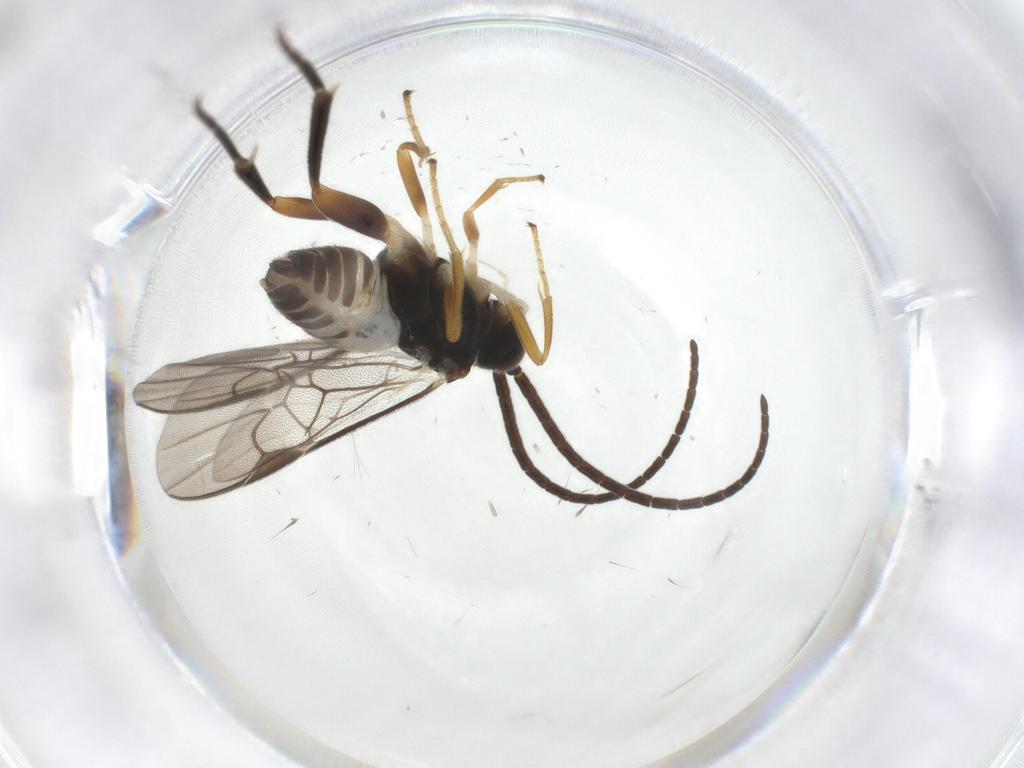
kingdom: Animalia
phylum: Arthropoda
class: Insecta
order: Hymenoptera
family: Braconidae
